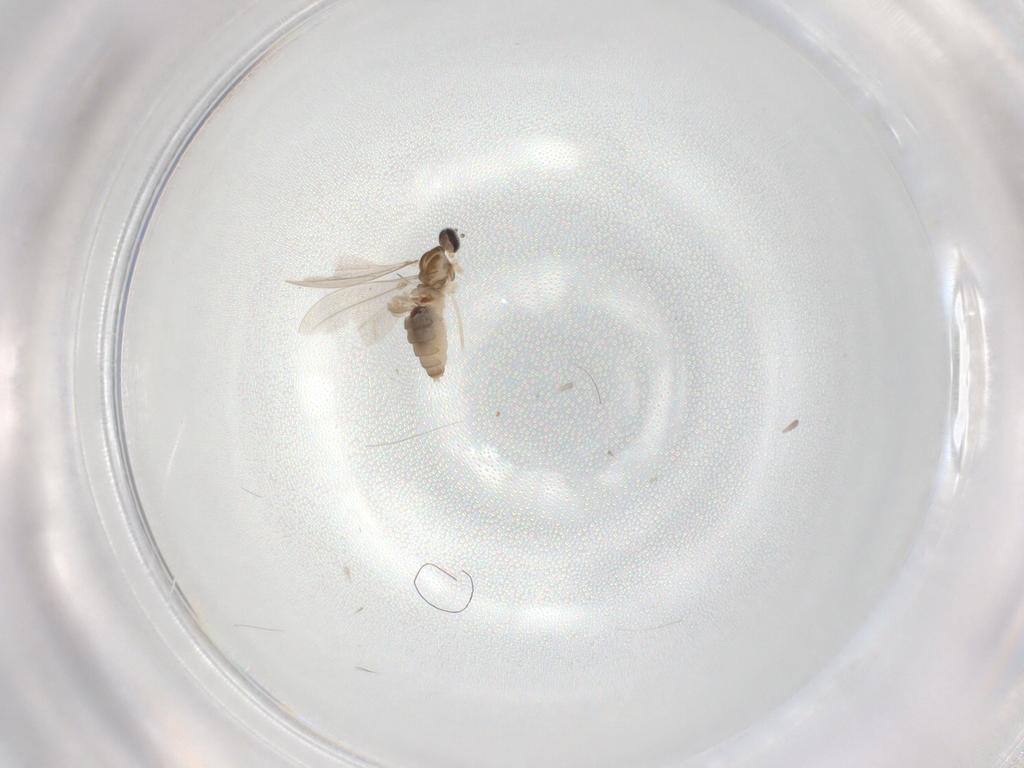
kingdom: Animalia
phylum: Arthropoda
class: Insecta
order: Diptera
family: Cecidomyiidae
